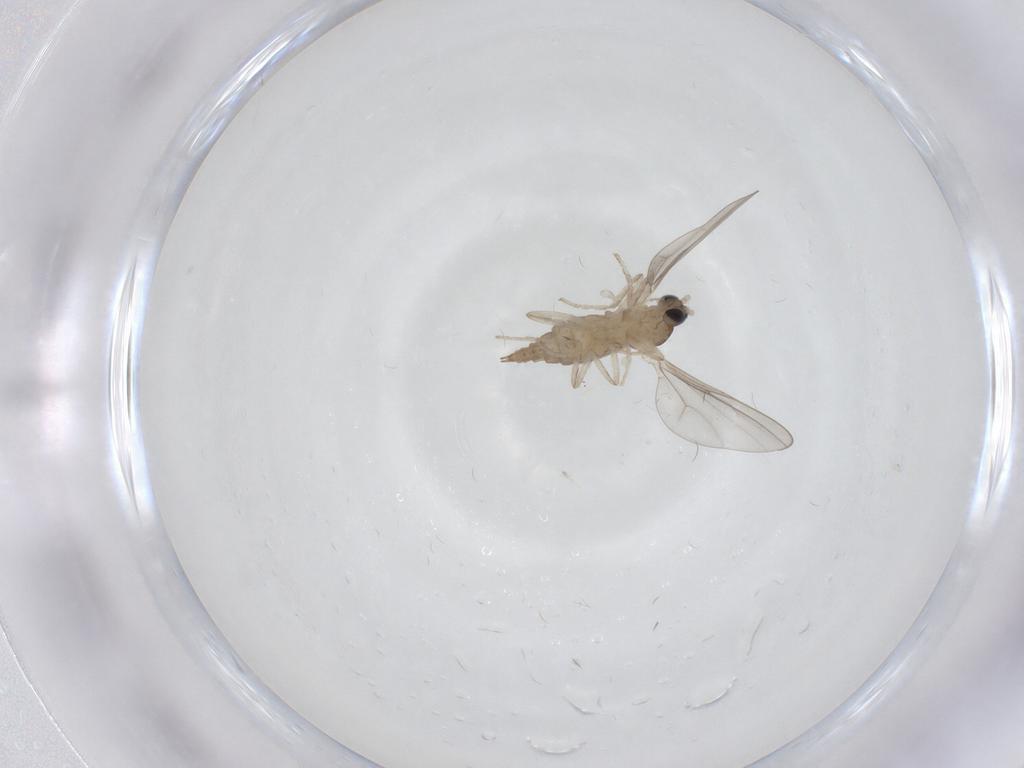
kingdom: Animalia
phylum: Arthropoda
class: Insecta
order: Diptera
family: Cecidomyiidae
